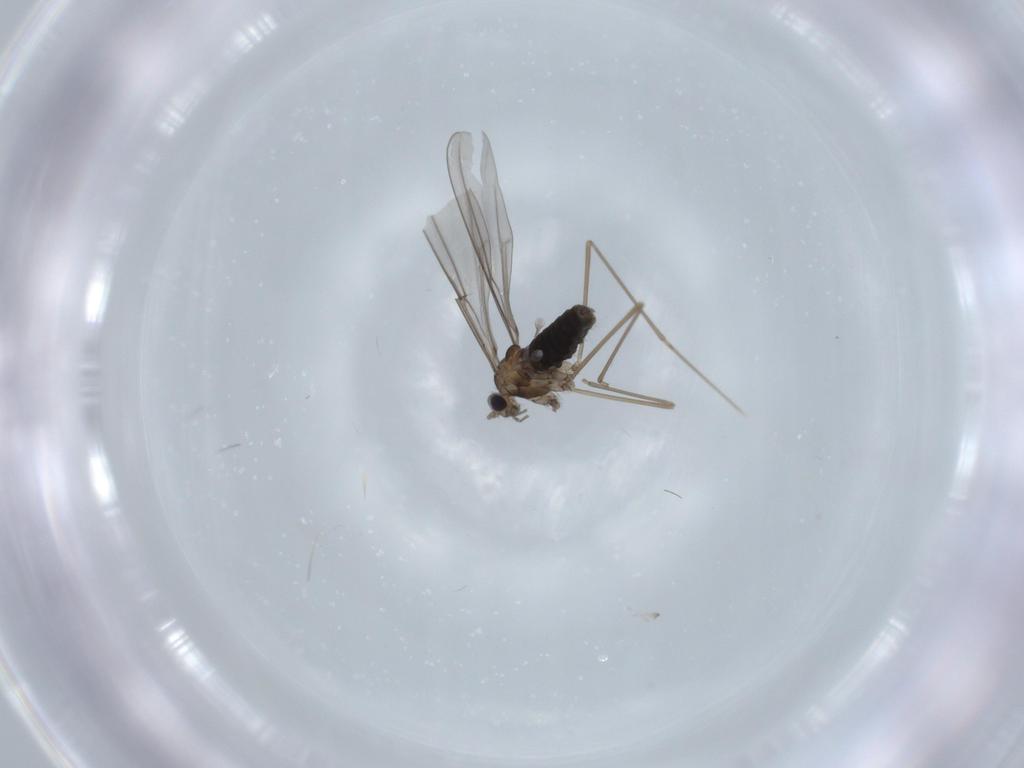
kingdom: Animalia
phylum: Arthropoda
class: Insecta
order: Diptera
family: Cecidomyiidae
